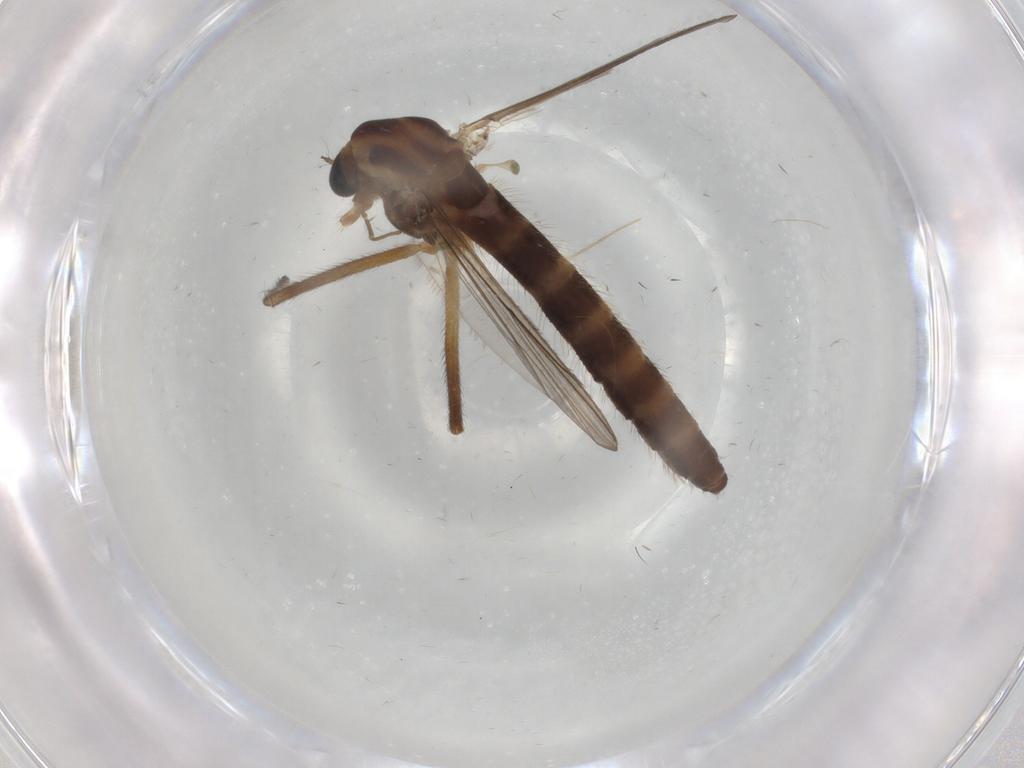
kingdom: Animalia
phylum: Arthropoda
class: Insecta
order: Diptera
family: Chironomidae
